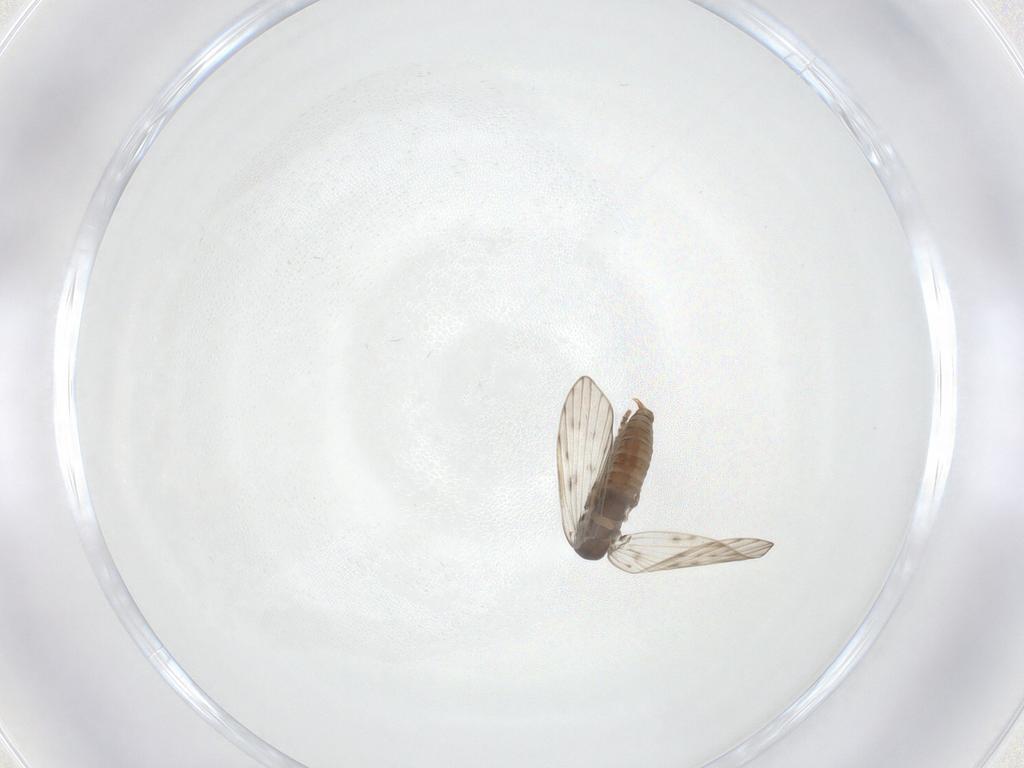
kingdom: Animalia
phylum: Arthropoda
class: Insecta
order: Diptera
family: Psychodidae
